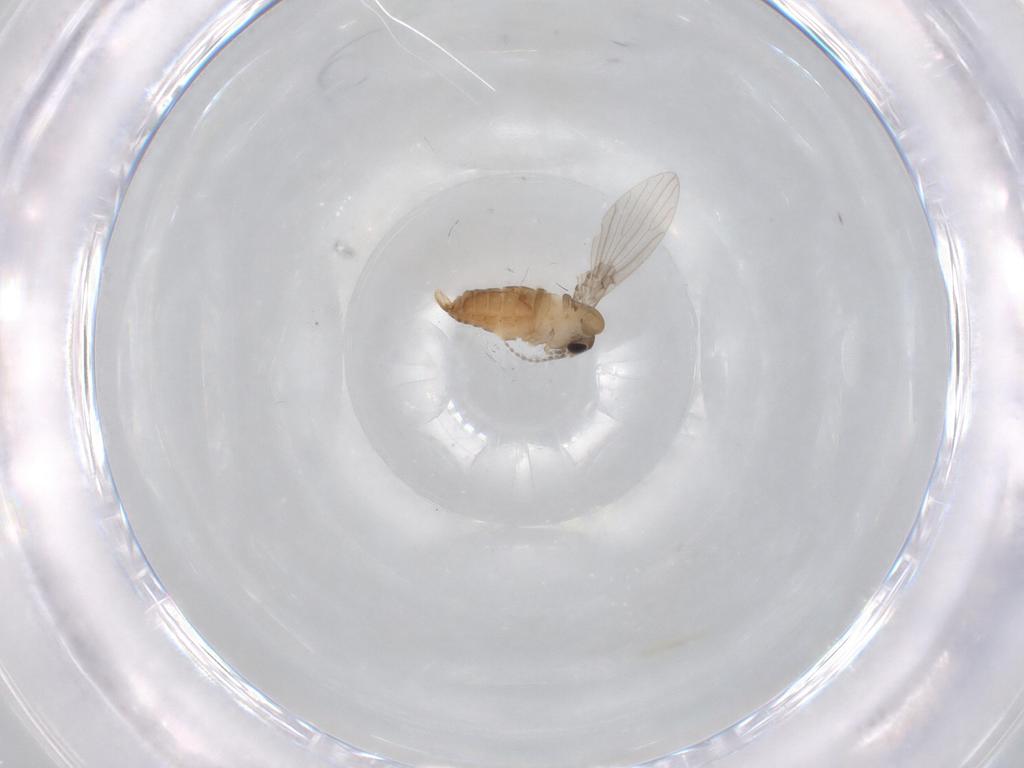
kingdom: Animalia
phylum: Arthropoda
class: Insecta
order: Diptera
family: Psychodidae
